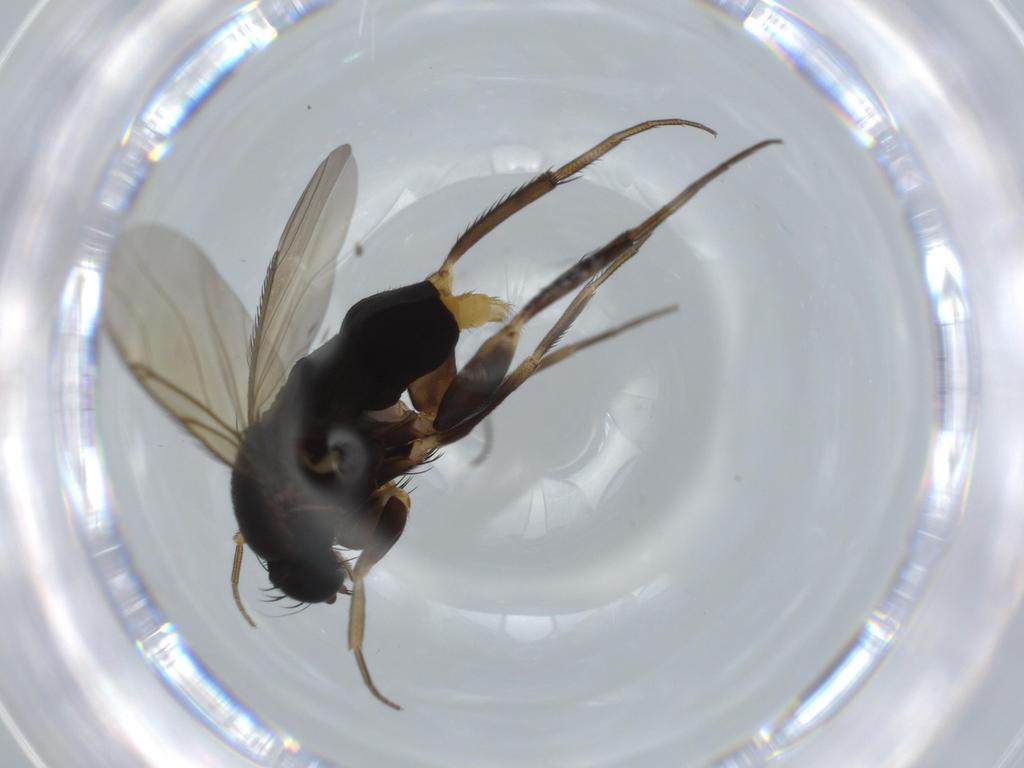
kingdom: Animalia
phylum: Arthropoda
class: Insecta
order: Diptera
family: Phoridae
